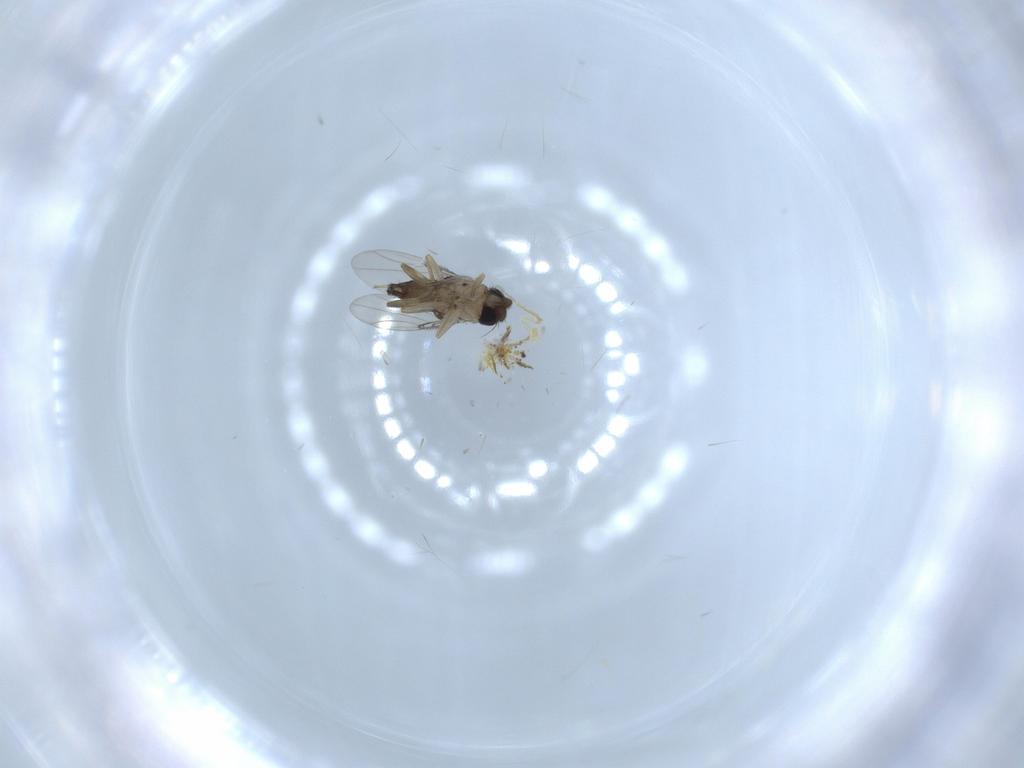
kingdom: Animalia
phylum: Arthropoda
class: Insecta
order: Diptera
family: Phoridae
